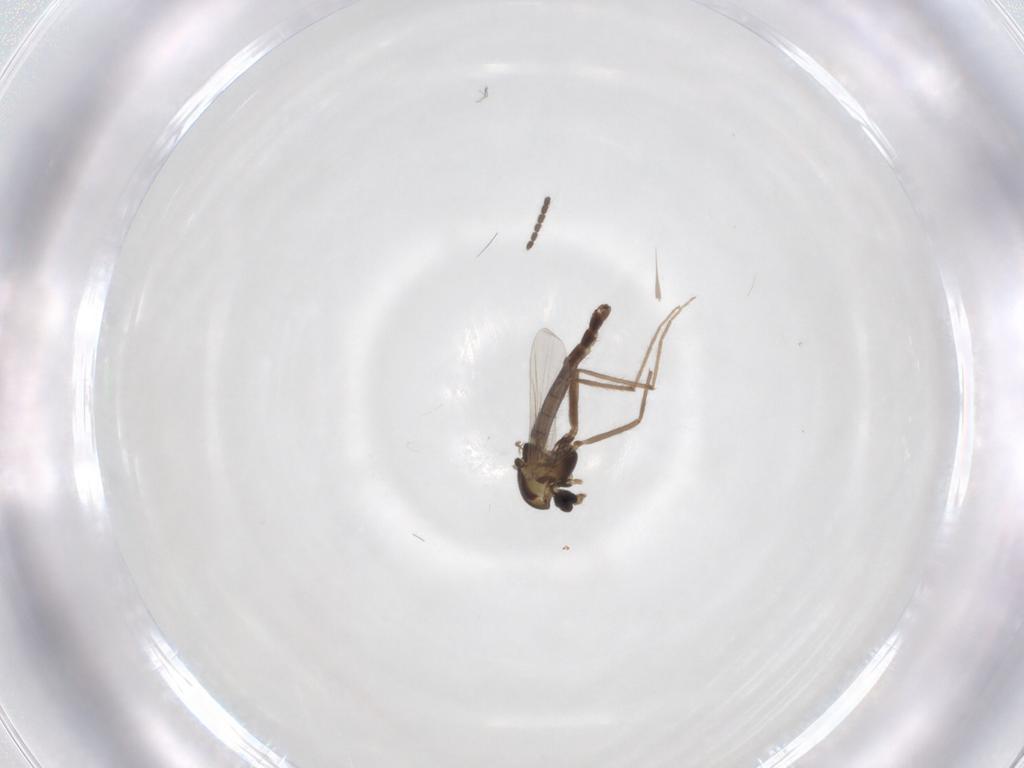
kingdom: Animalia
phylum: Arthropoda
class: Insecta
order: Diptera
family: Chironomidae
